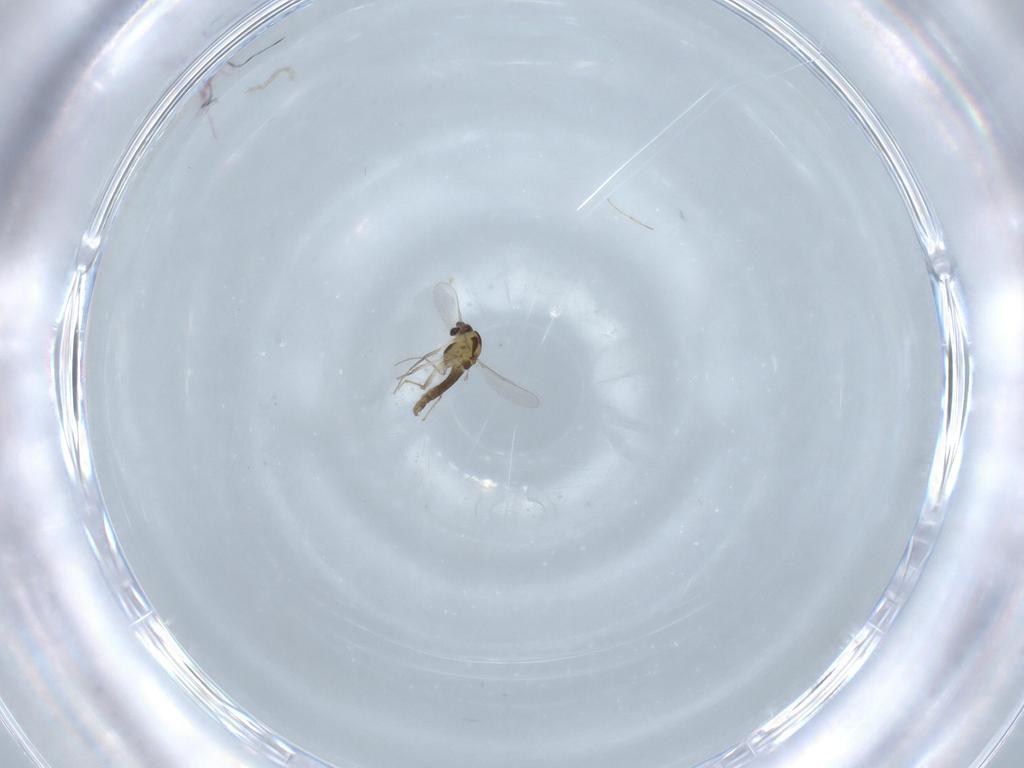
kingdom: Animalia
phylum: Arthropoda
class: Insecta
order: Diptera
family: Chironomidae
